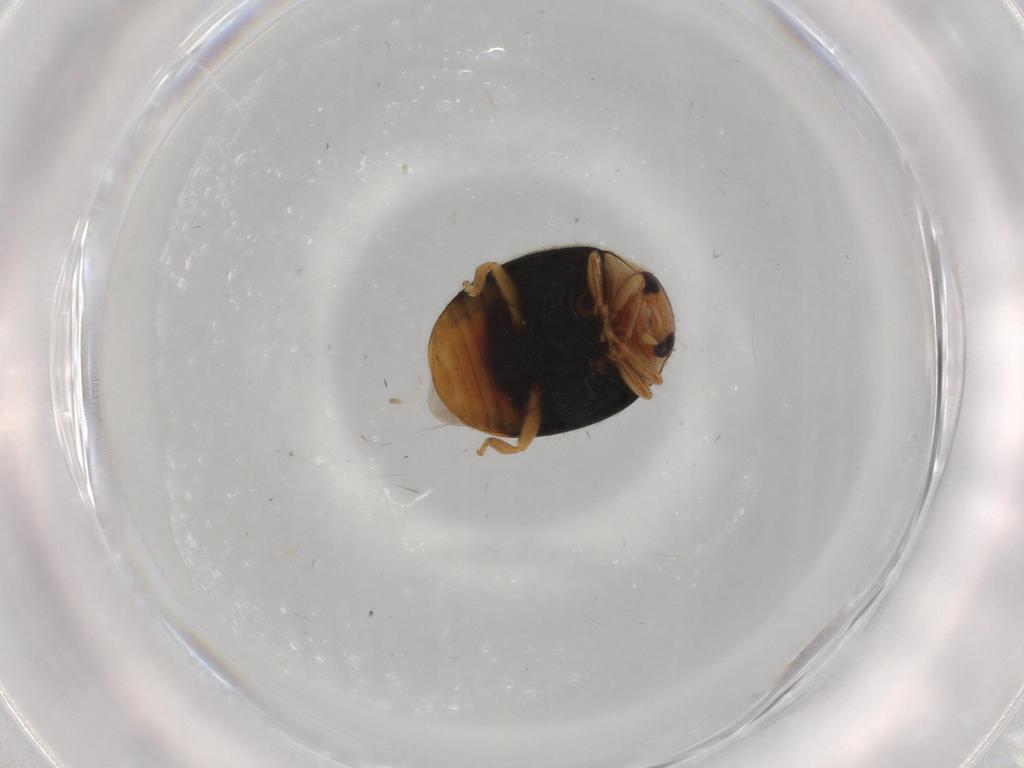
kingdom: Animalia
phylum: Arthropoda
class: Insecta
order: Coleoptera
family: Coccinellidae
